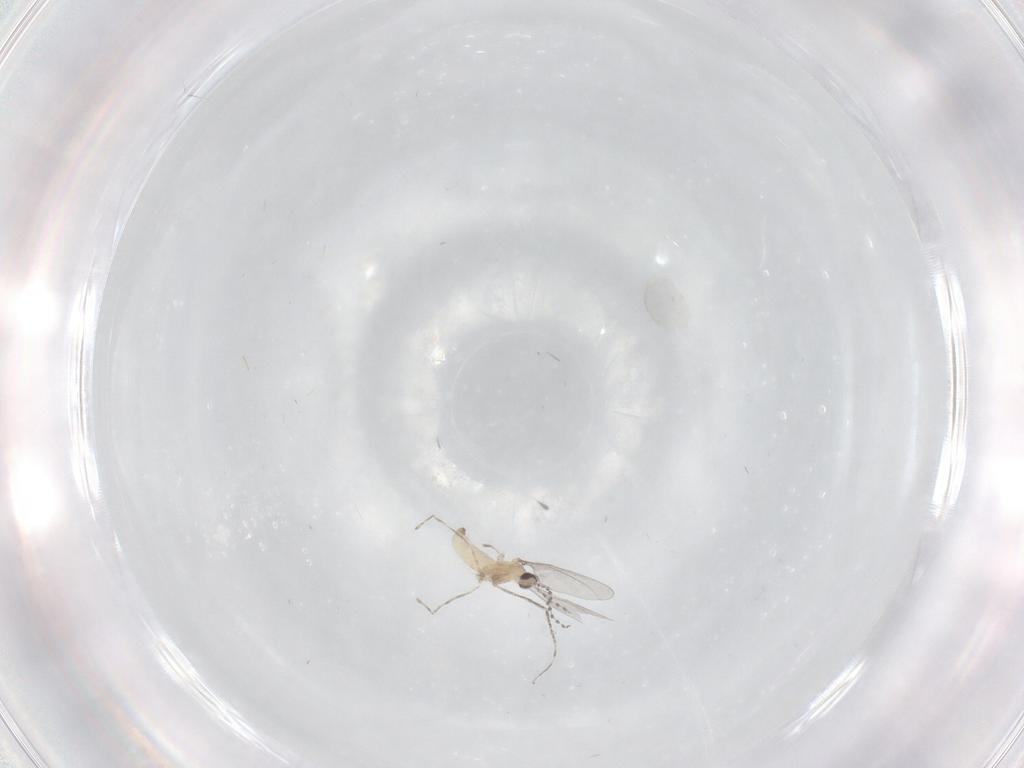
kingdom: Animalia
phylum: Arthropoda
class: Insecta
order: Diptera
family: Cecidomyiidae
